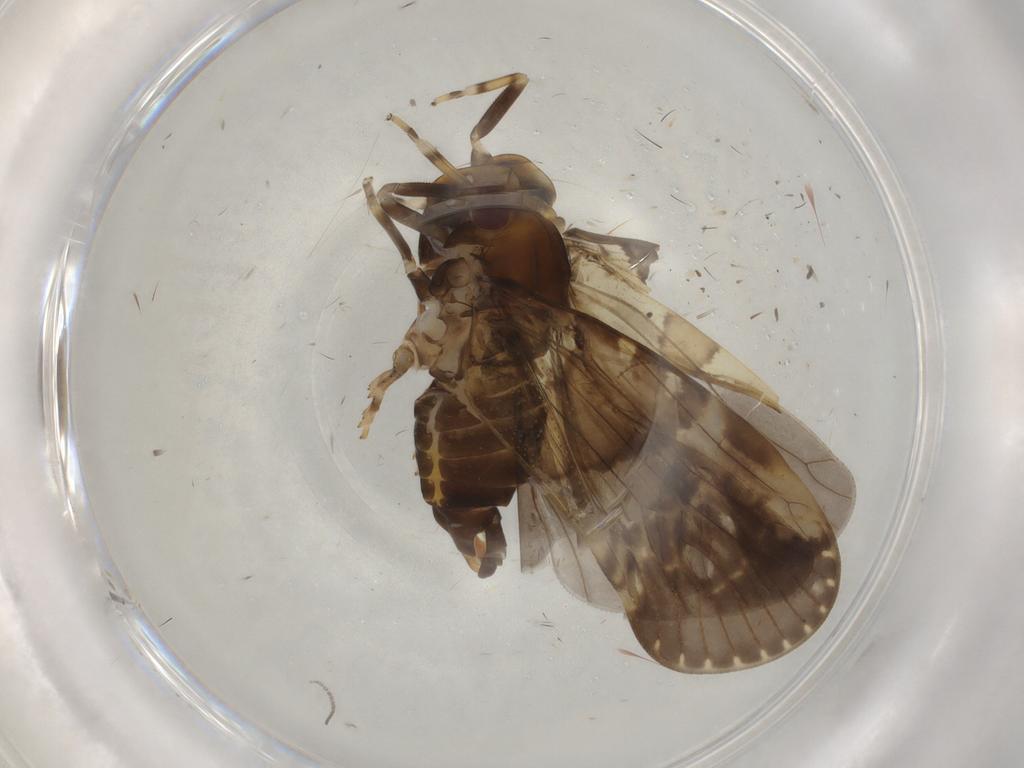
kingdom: Animalia
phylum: Arthropoda
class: Insecta
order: Hemiptera
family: Cixiidae
